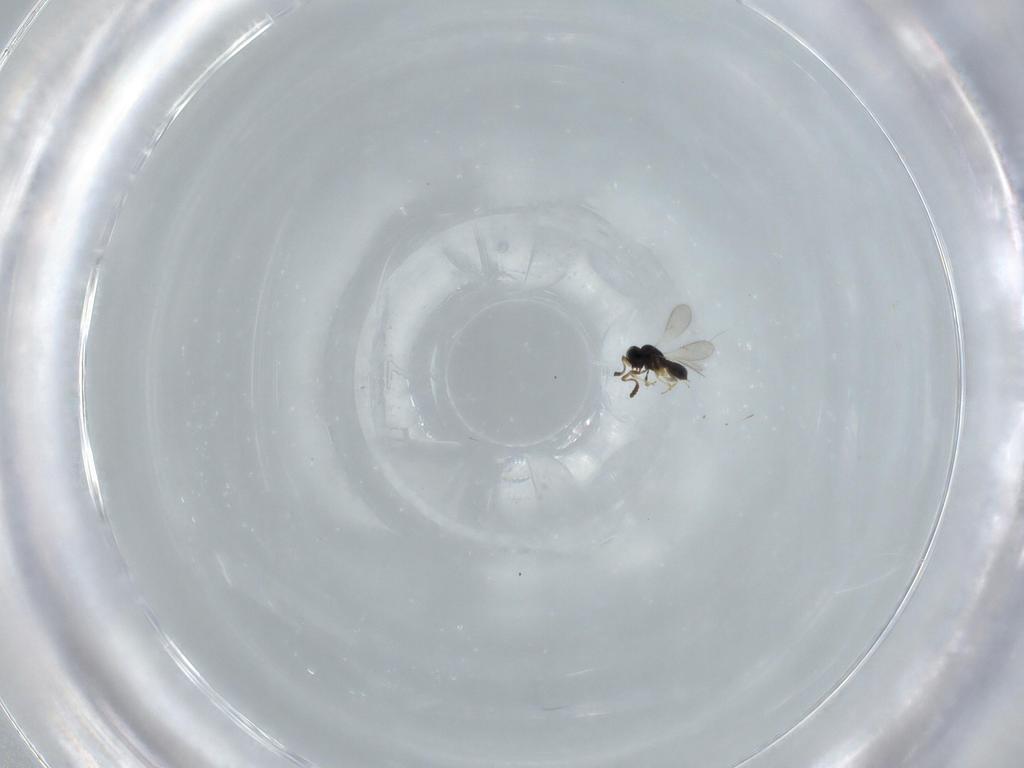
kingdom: Animalia
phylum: Arthropoda
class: Insecta
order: Hymenoptera
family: Scelionidae
